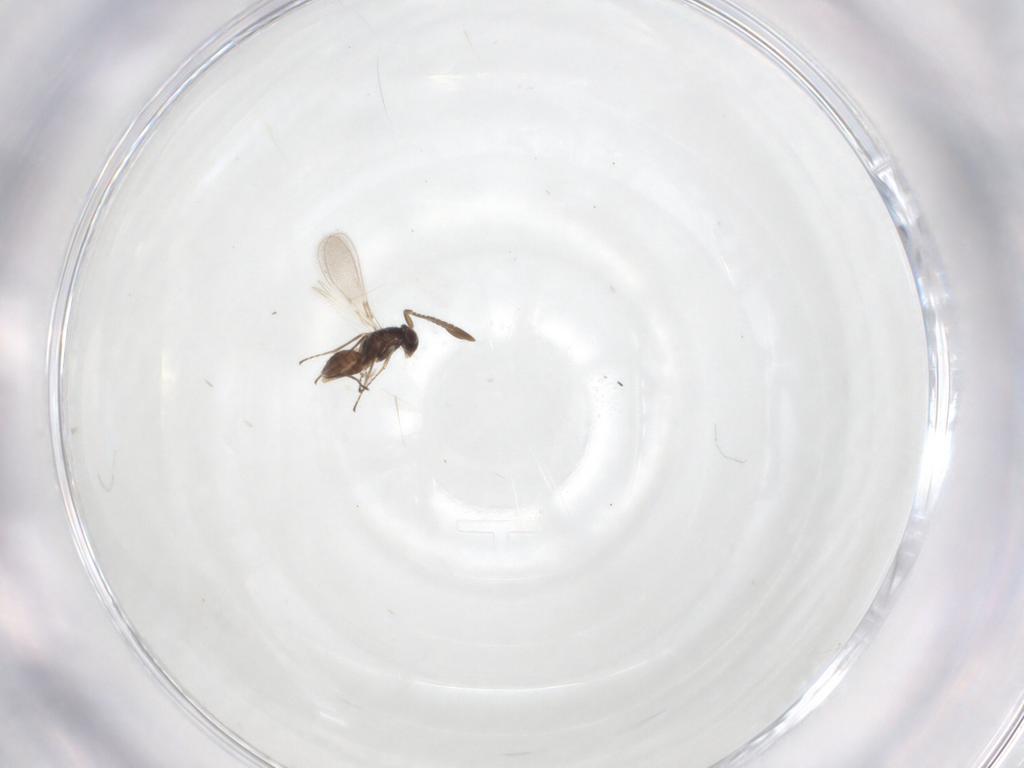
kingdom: Animalia
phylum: Arthropoda
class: Insecta
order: Hymenoptera
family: Mymaridae
